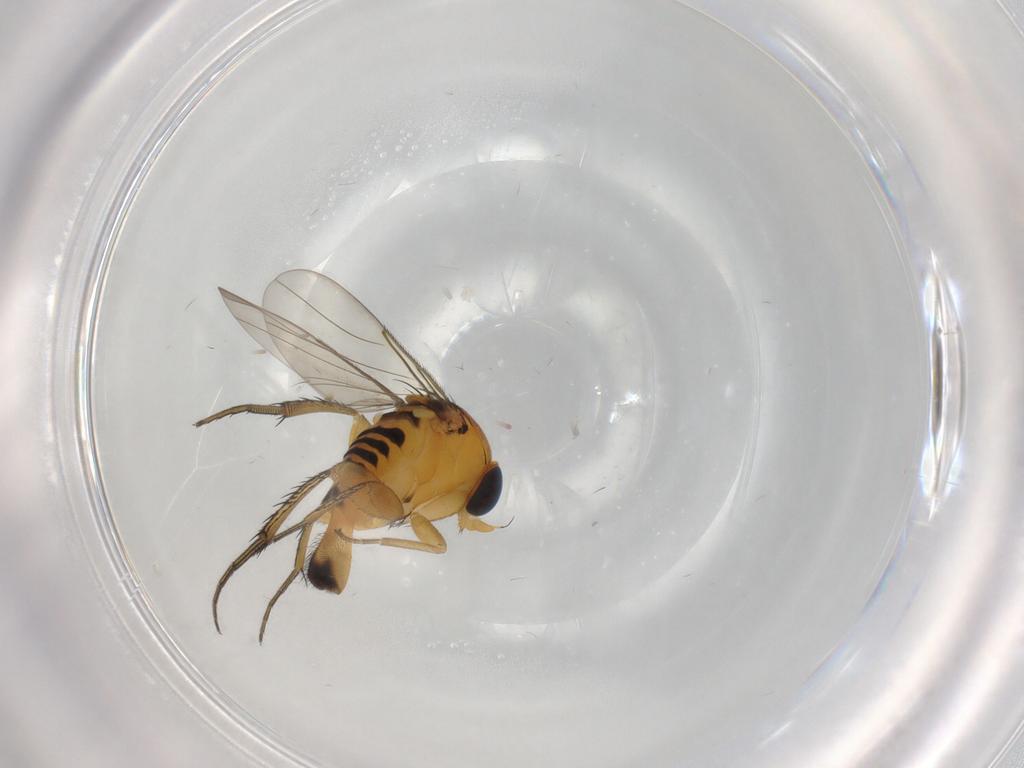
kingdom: Animalia
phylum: Arthropoda
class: Insecta
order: Diptera
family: Phoridae
